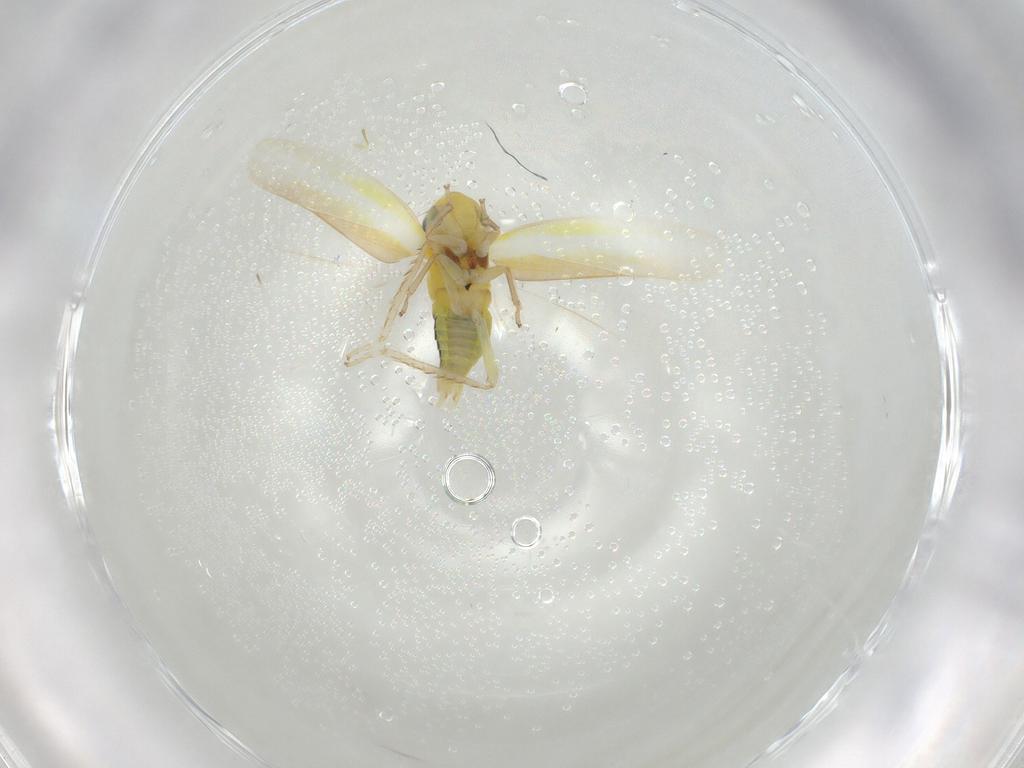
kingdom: Animalia
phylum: Arthropoda
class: Insecta
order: Hemiptera
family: Aleyrodidae
